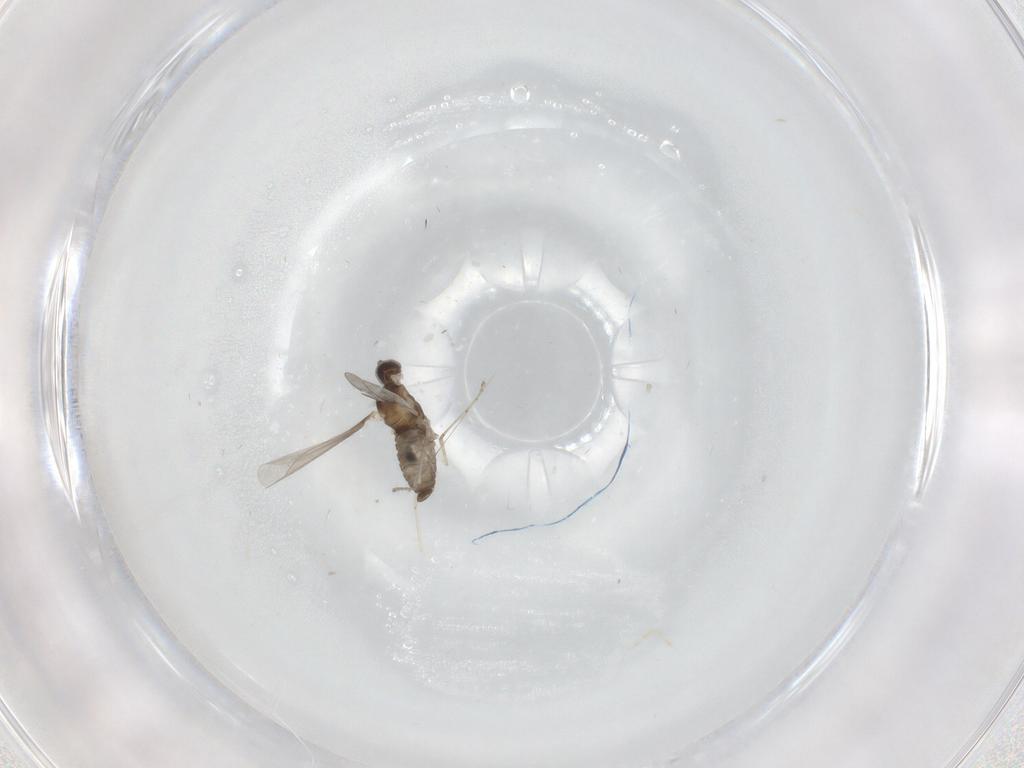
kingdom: Animalia
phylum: Arthropoda
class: Insecta
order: Diptera
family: Cecidomyiidae
